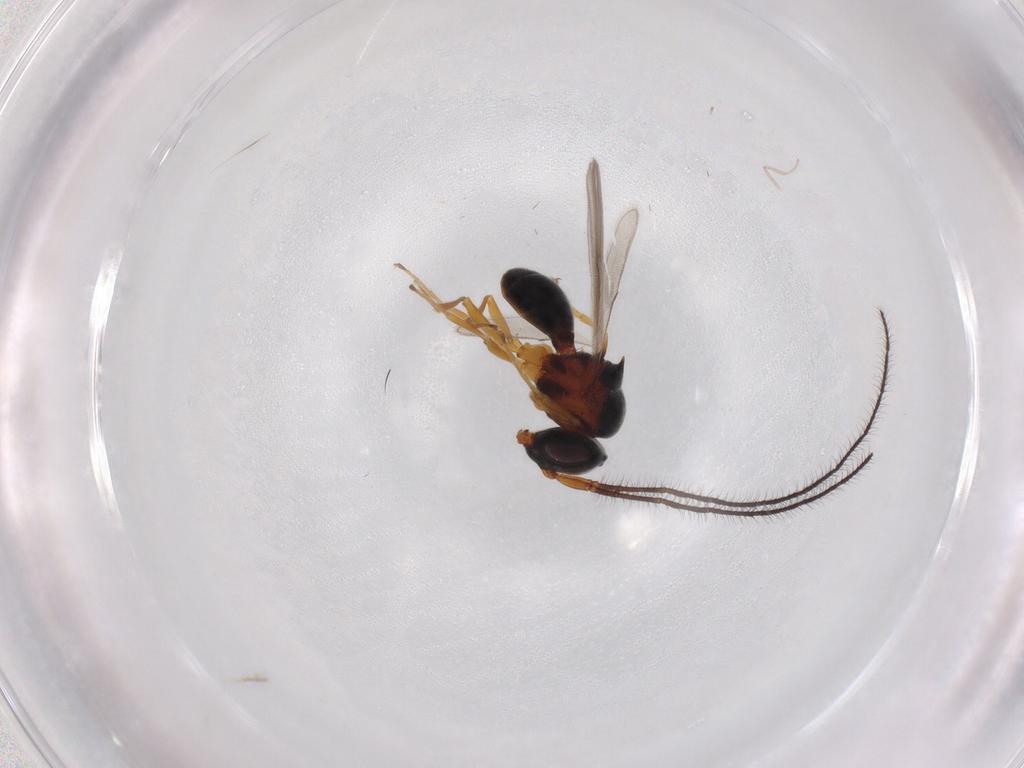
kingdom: Animalia
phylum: Arthropoda
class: Insecta
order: Hymenoptera
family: Ichneumonidae
